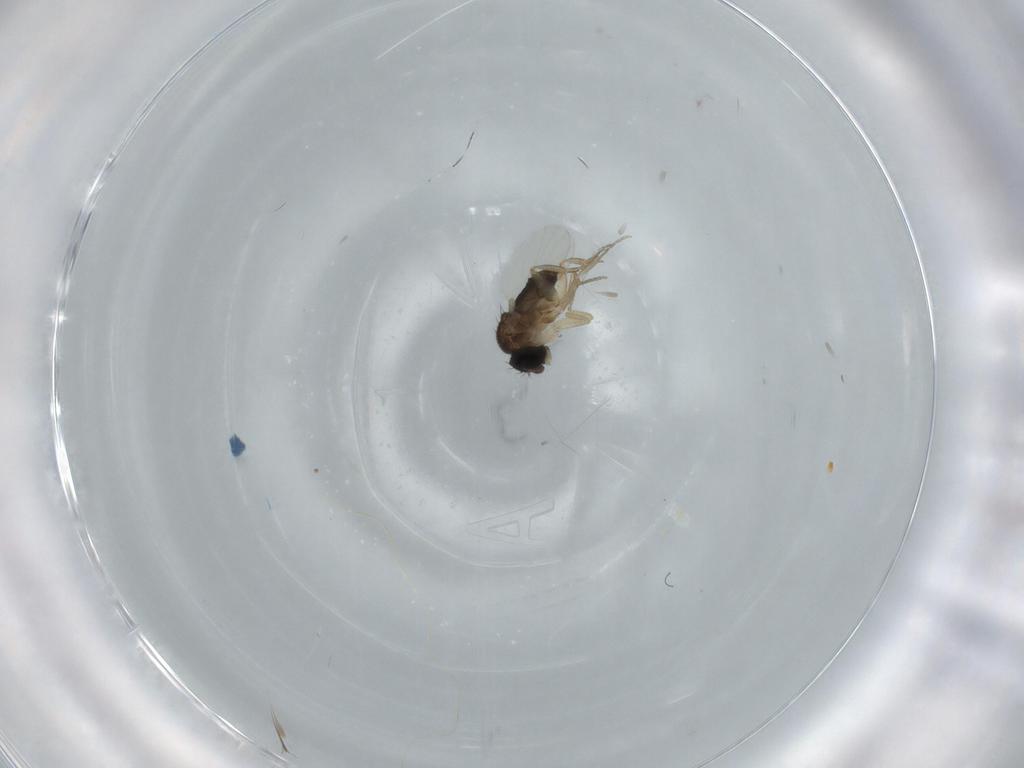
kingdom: Animalia
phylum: Arthropoda
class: Insecta
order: Diptera
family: Phoridae
